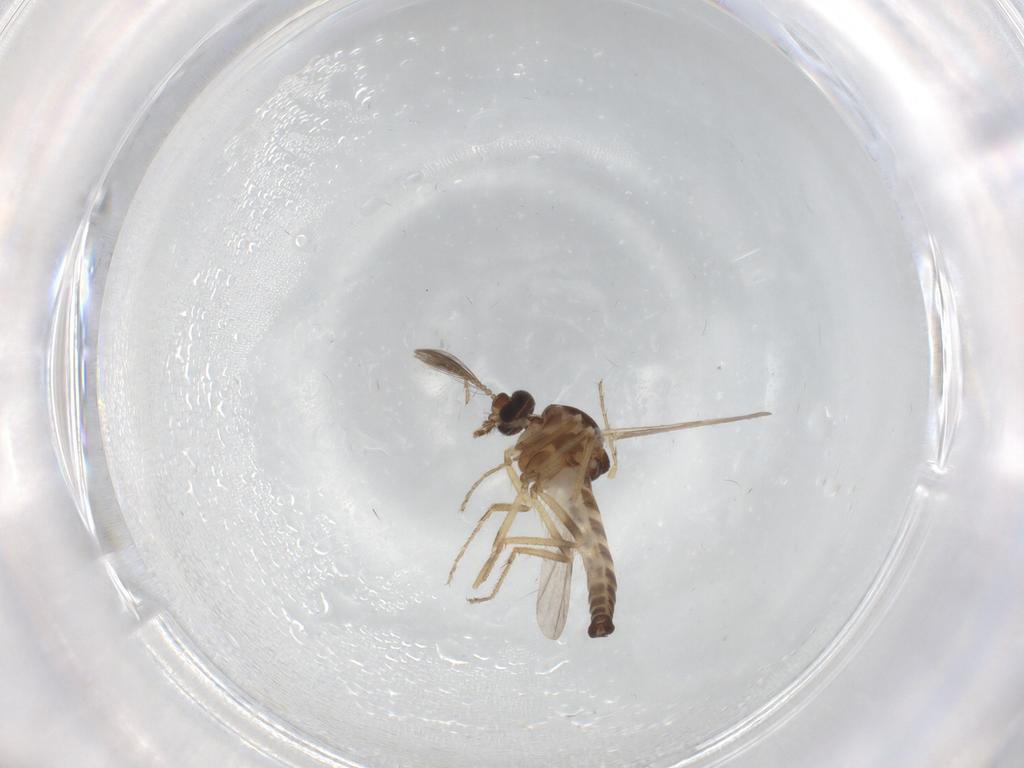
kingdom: Animalia
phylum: Arthropoda
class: Insecta
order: Diptera
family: Ceratopogonidae
